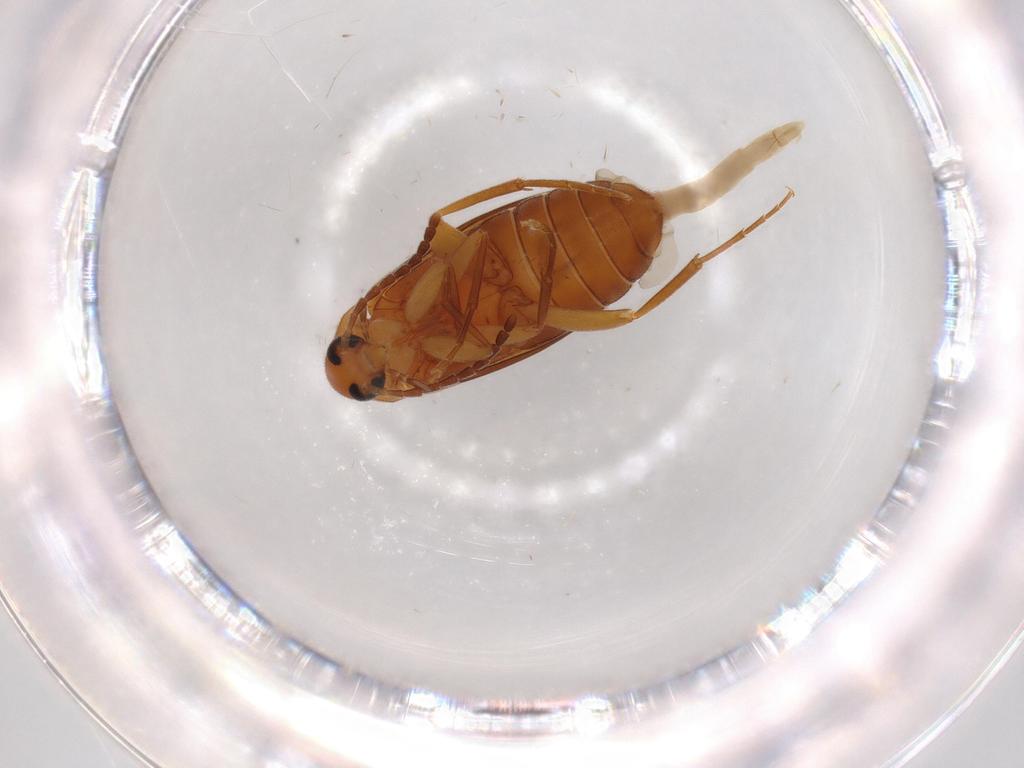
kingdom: Animalia
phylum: Arthropoda
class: Insecta
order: Coleoptera
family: Scraptiidae
